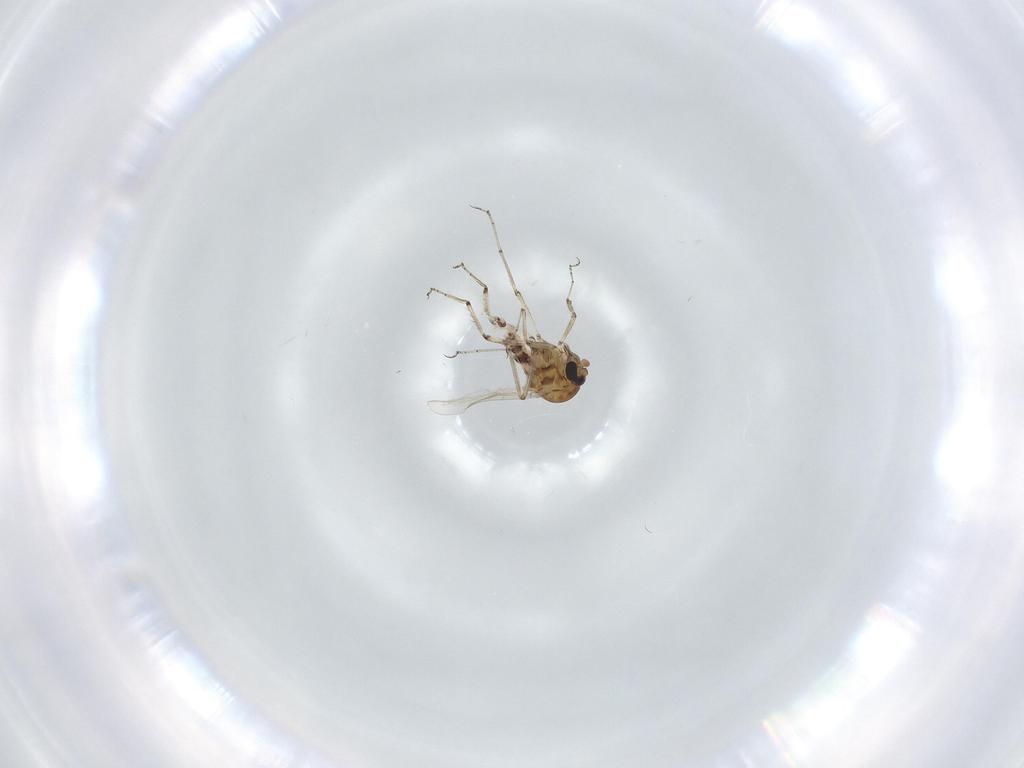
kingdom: Animalia
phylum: Arthropoda
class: Insecta
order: Diptera
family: Ceratopogonidae
